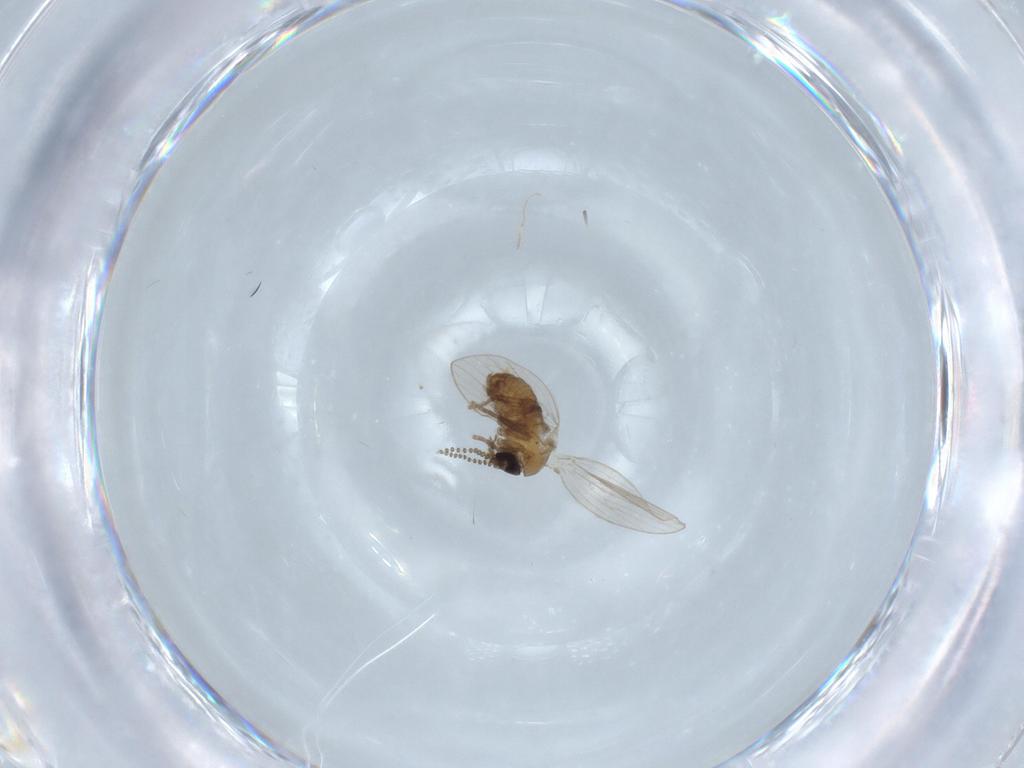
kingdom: Animalia
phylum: Arthropoda
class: Insecta
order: Diptera
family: Psychodidae
